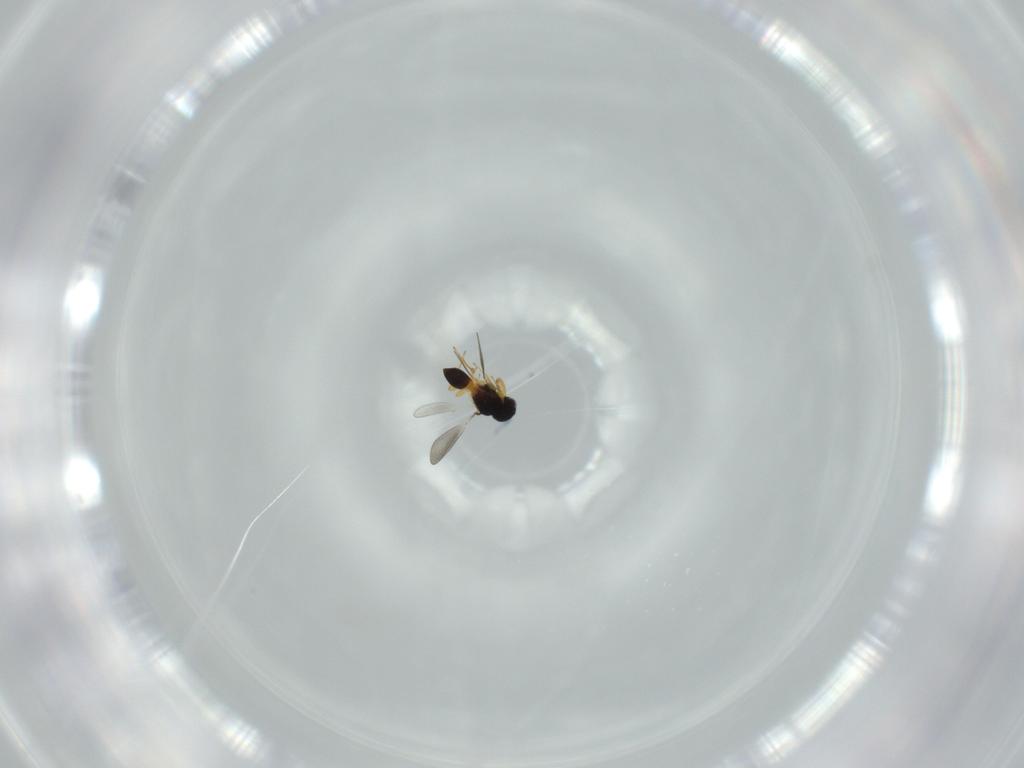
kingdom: Animalia
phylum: Arthropoda
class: Insecta
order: Hymenoptera
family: Platygastridae
